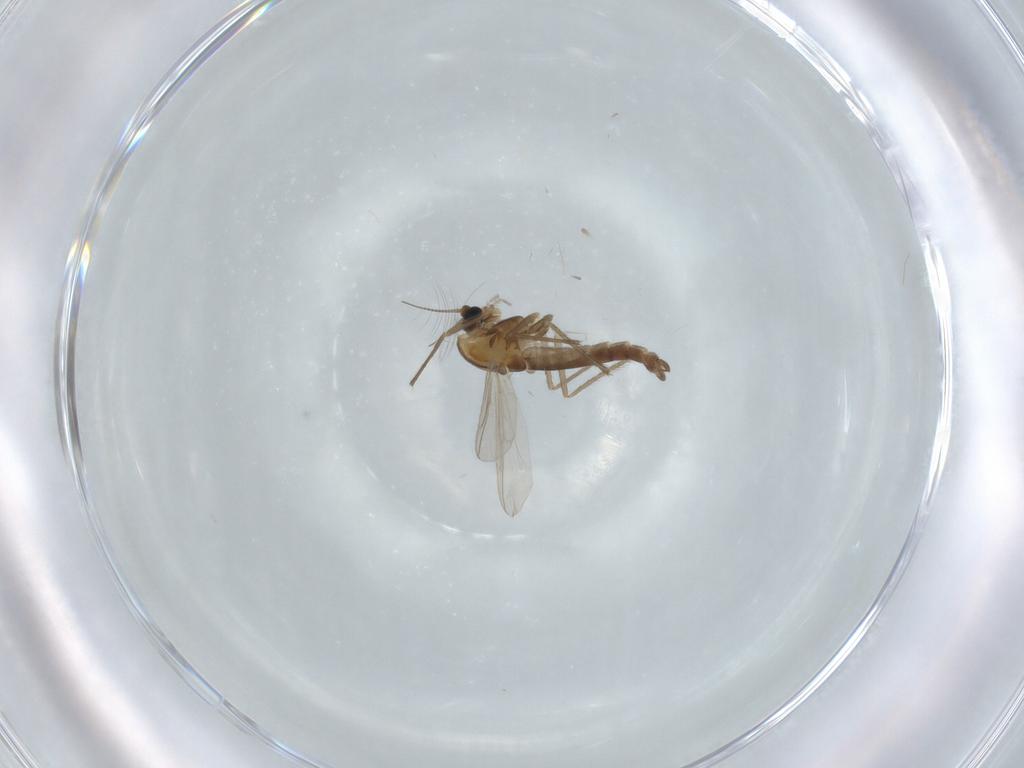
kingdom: Animalia
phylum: Arthropoda
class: Insecta
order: Diptera
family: Chironomidae
